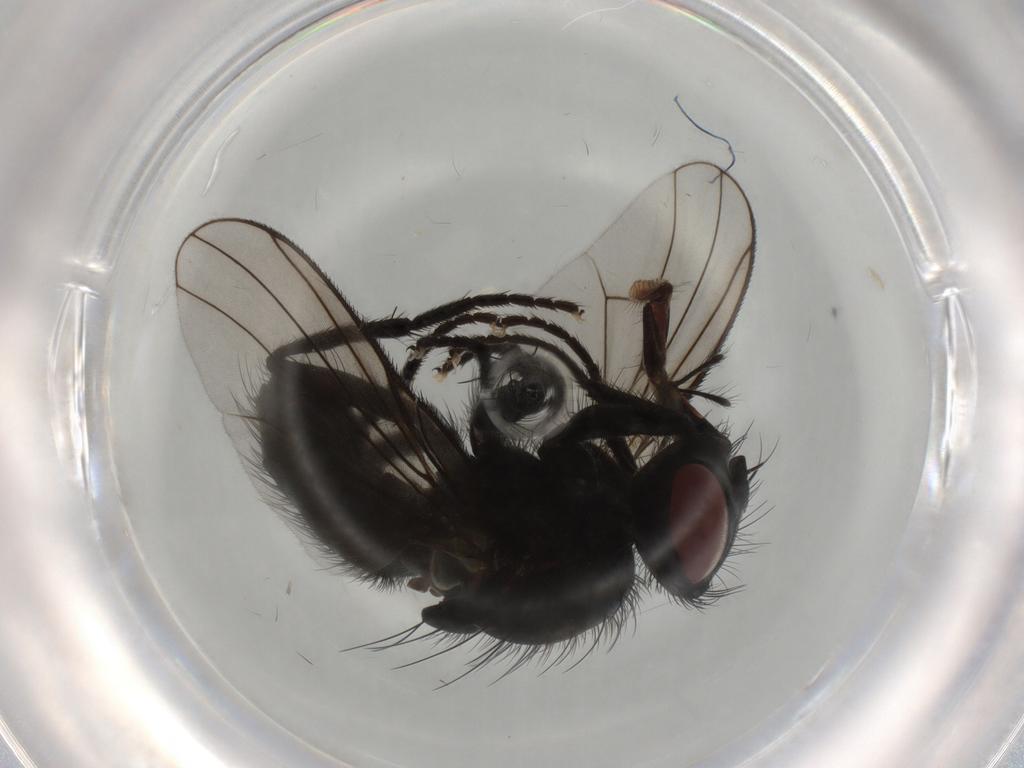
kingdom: Animalia
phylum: Arthropoda
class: Insecta
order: Diptera
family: Muscidae
